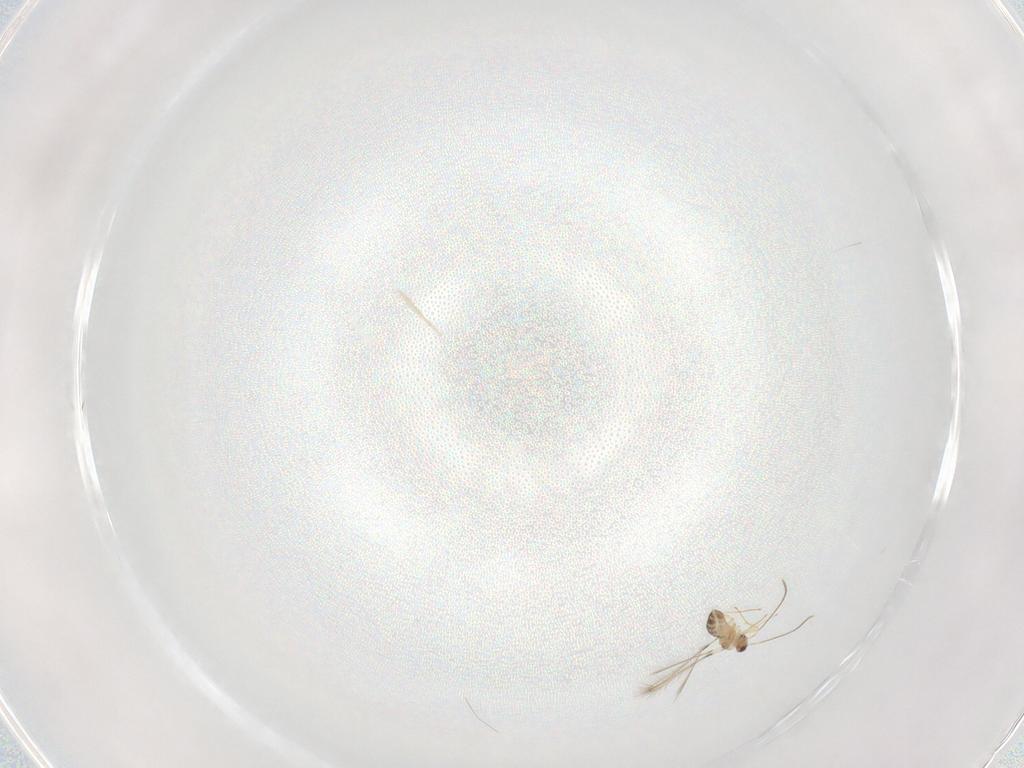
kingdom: Animalia
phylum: Arthropoda
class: Insecta
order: Hymenoptera
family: Mymaridae
